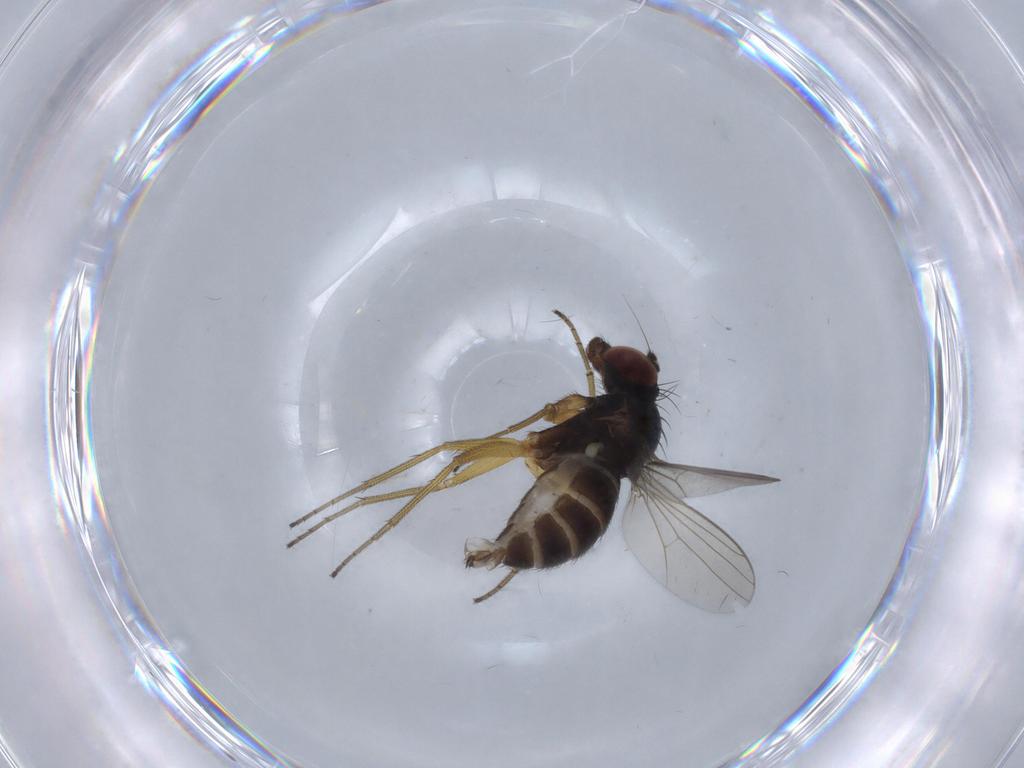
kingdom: Animalia
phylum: Arthropoda
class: Insecta
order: Diptera
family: Dolichopodidae
